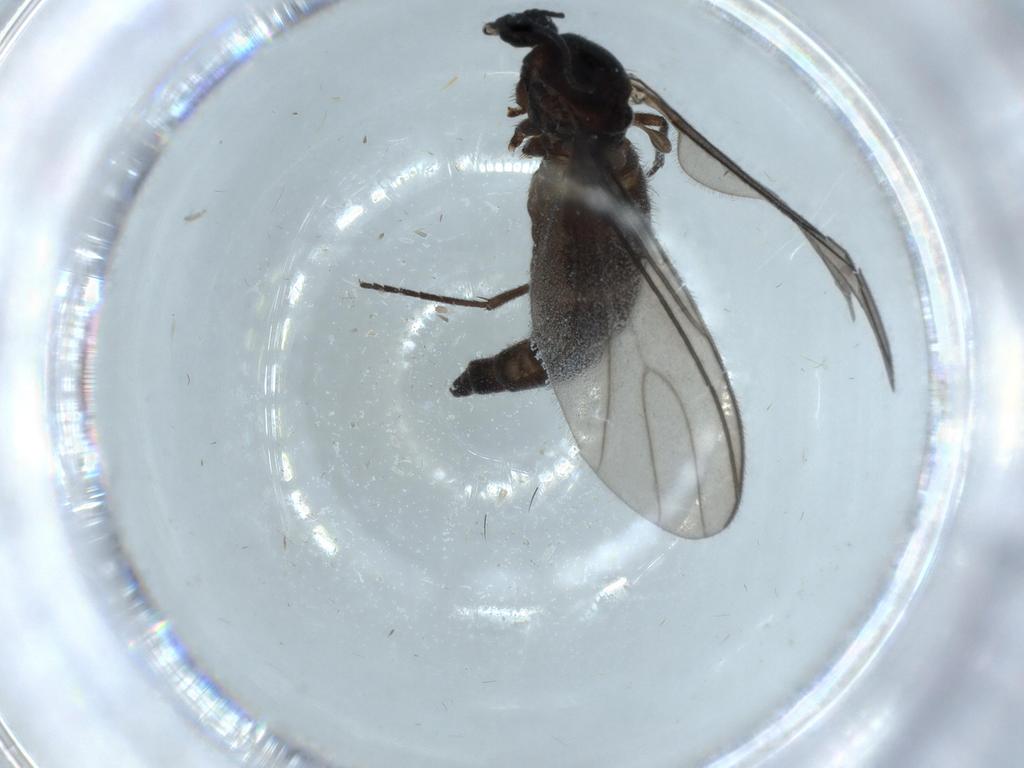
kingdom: Animalia
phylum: Arthropoda
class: Insecta
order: Diptera
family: Sciaridae
